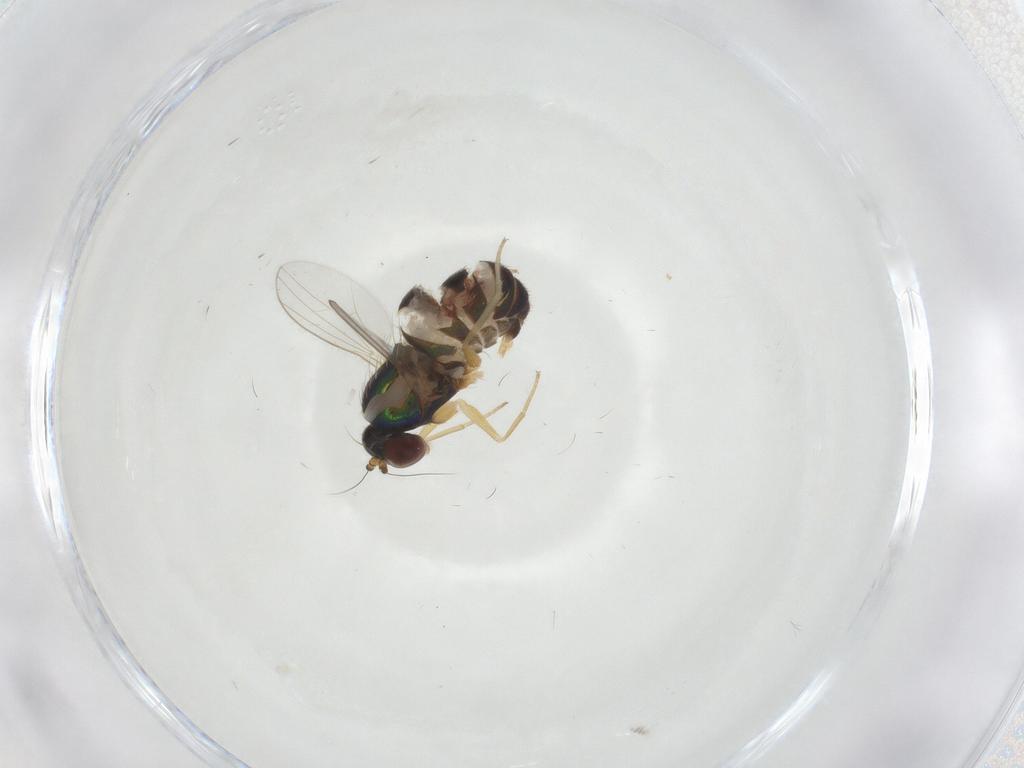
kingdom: Animalia
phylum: Arthropoda
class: Insecta
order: Diptera
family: Dolichopodidae
